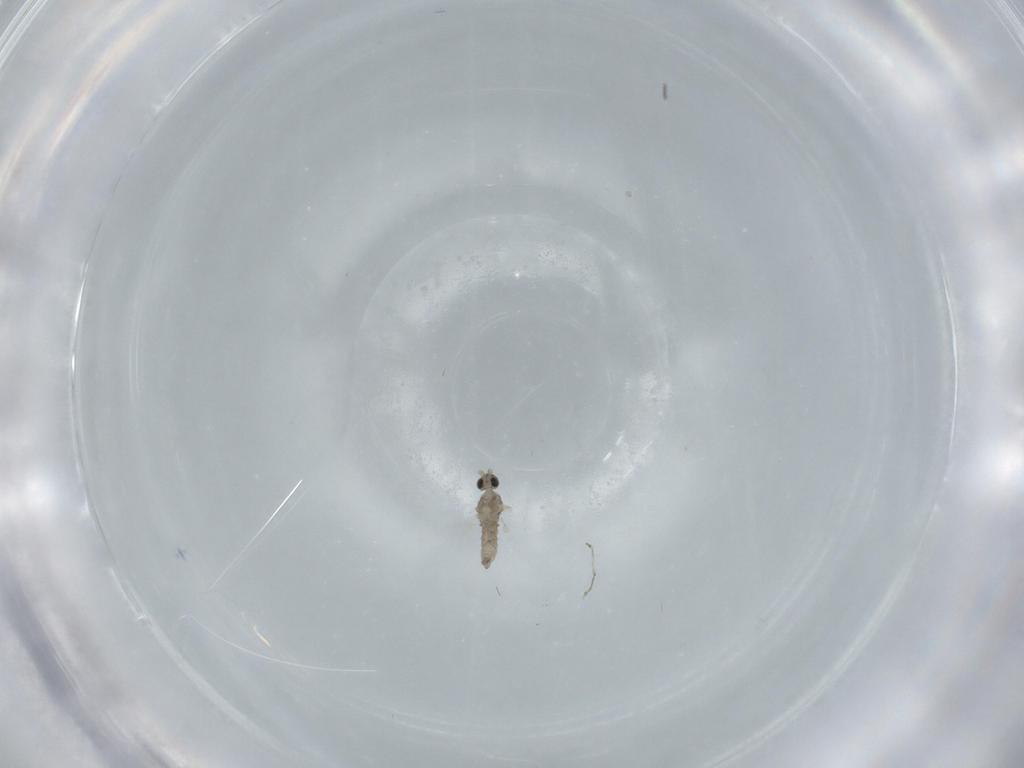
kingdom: Animalia
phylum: Arthropoda
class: Insecta
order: Diptera
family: Cecidomyiidae
